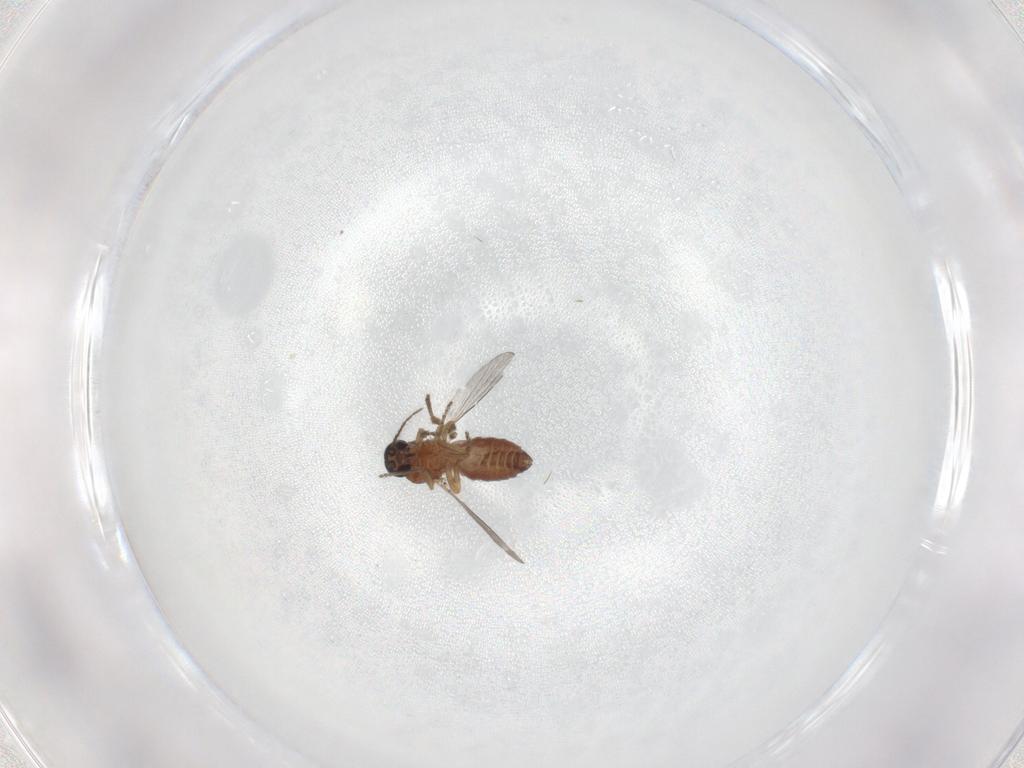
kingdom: Animalia
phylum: Arthropoda
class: Insecta
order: Diptera
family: Ceratopogonidae
